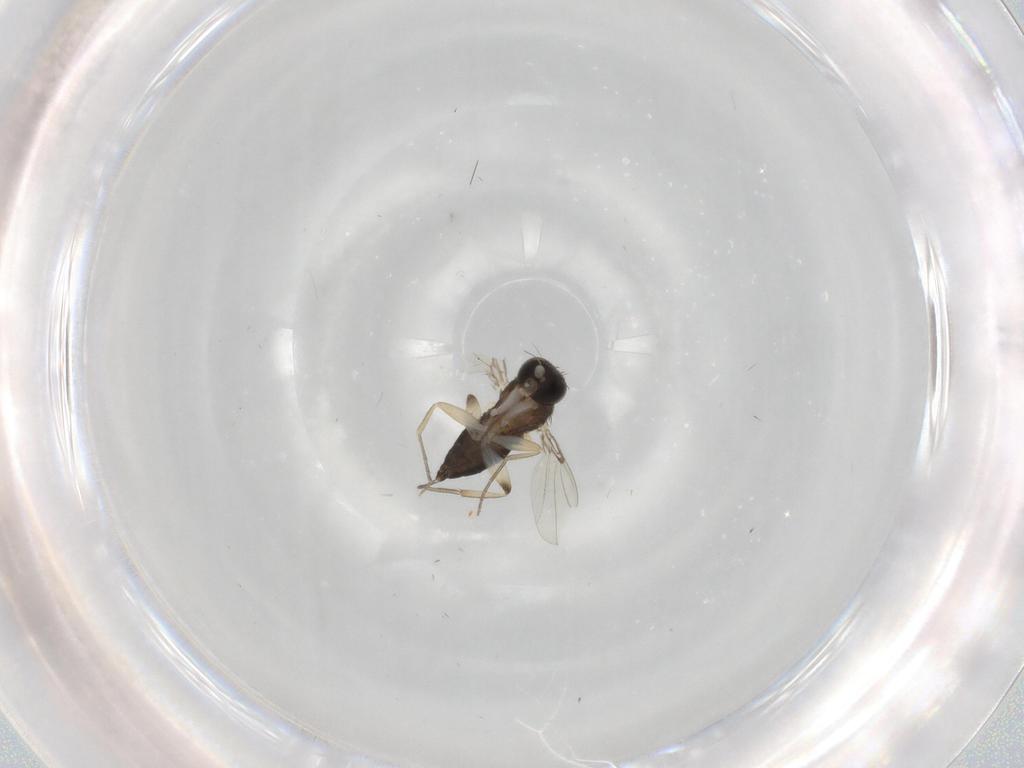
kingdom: Animalia
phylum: Arthropoda
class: Insecta
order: Diptera
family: Phoridae
